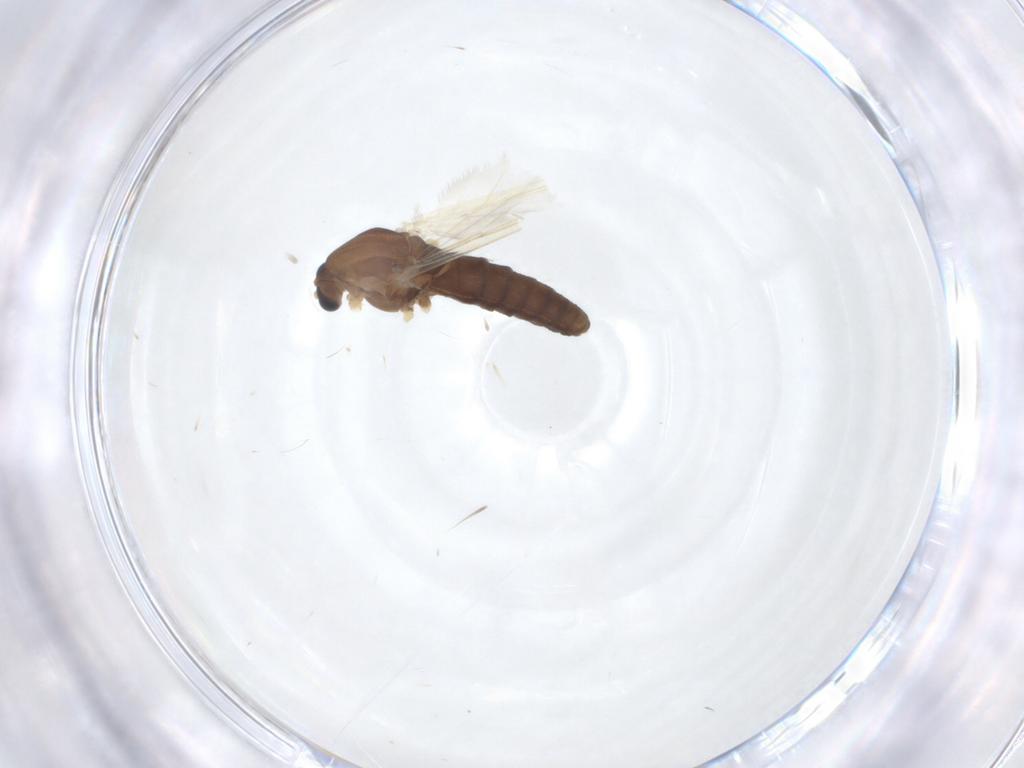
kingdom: Animalia
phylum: Arthropoda
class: Insecta
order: Diptera
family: Chironomidae
